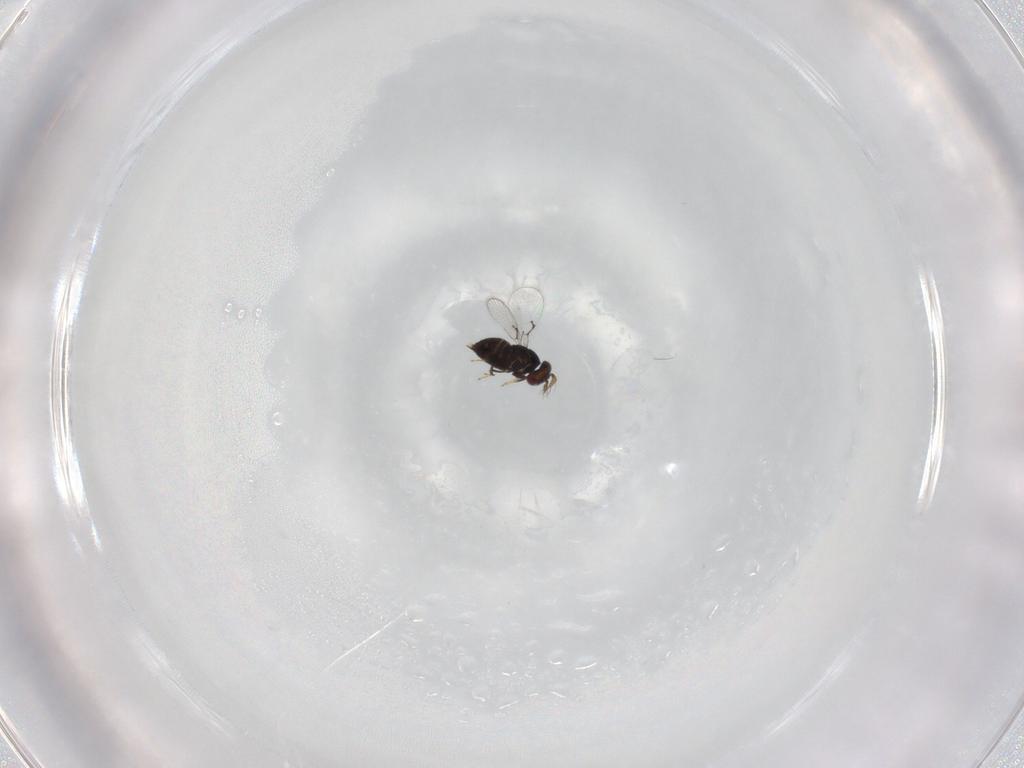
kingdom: Animalia
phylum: Arthropoda
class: Insecta
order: Hymenoptera
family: Trichogrammatidae
